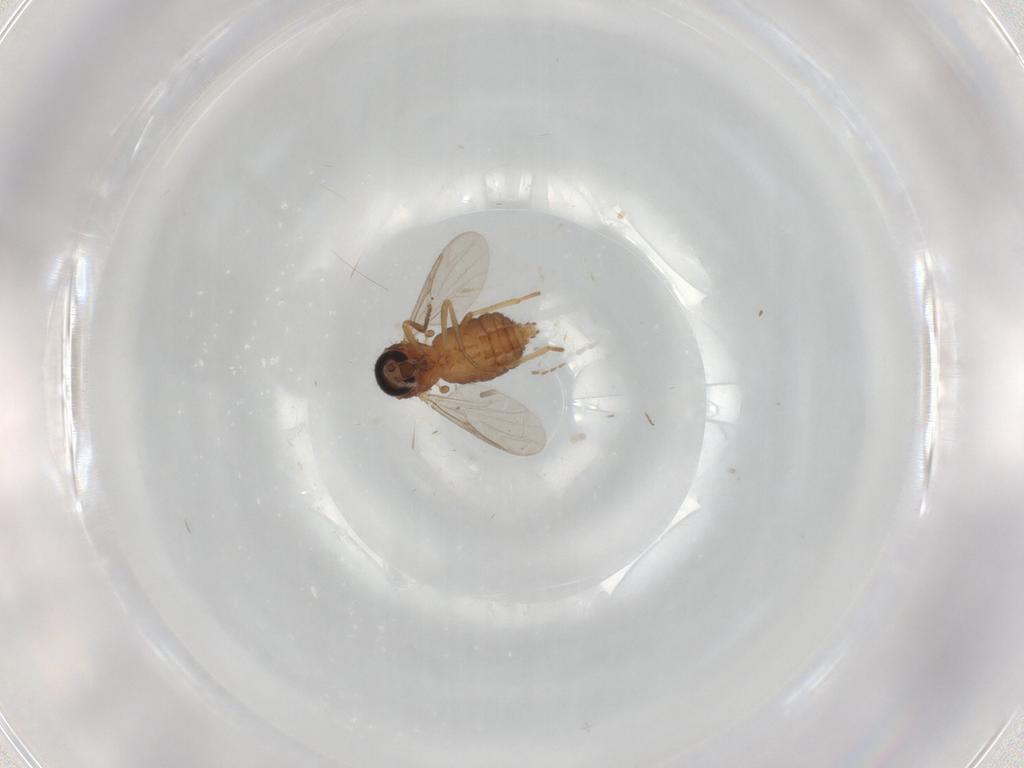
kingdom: Animalia
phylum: Arthropoda
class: Insecta
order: Diptera
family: Chironomidae
